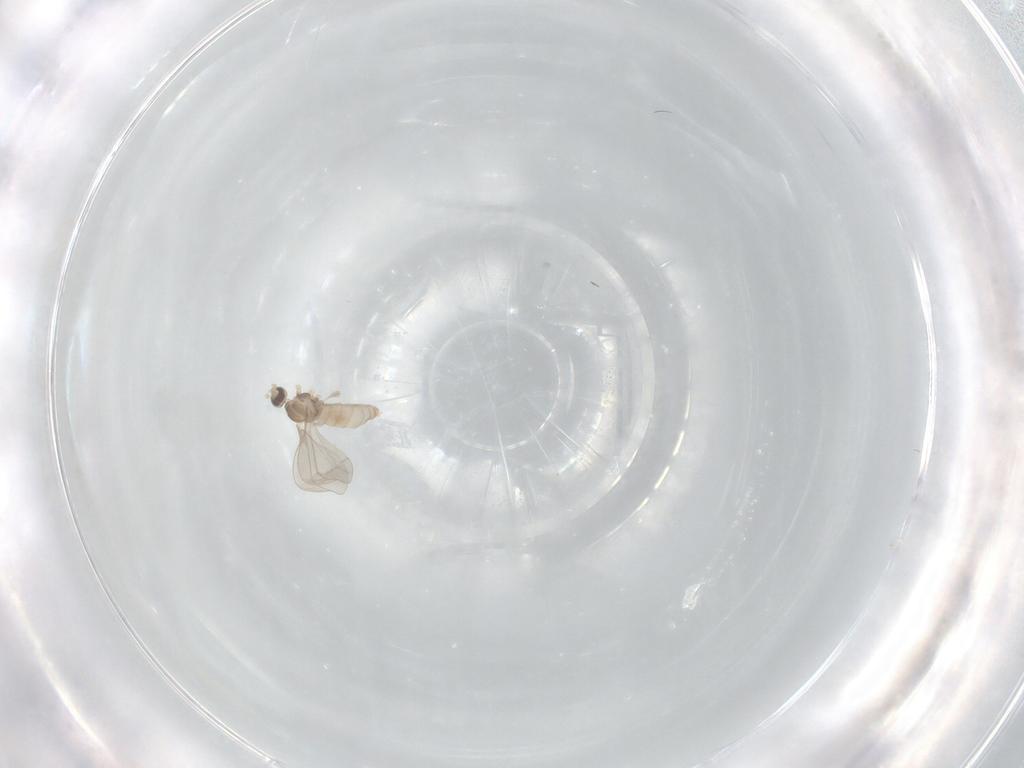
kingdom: Animalia
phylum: Arthropoda
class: Insecta
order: Diptera
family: Cecidomyiidae
